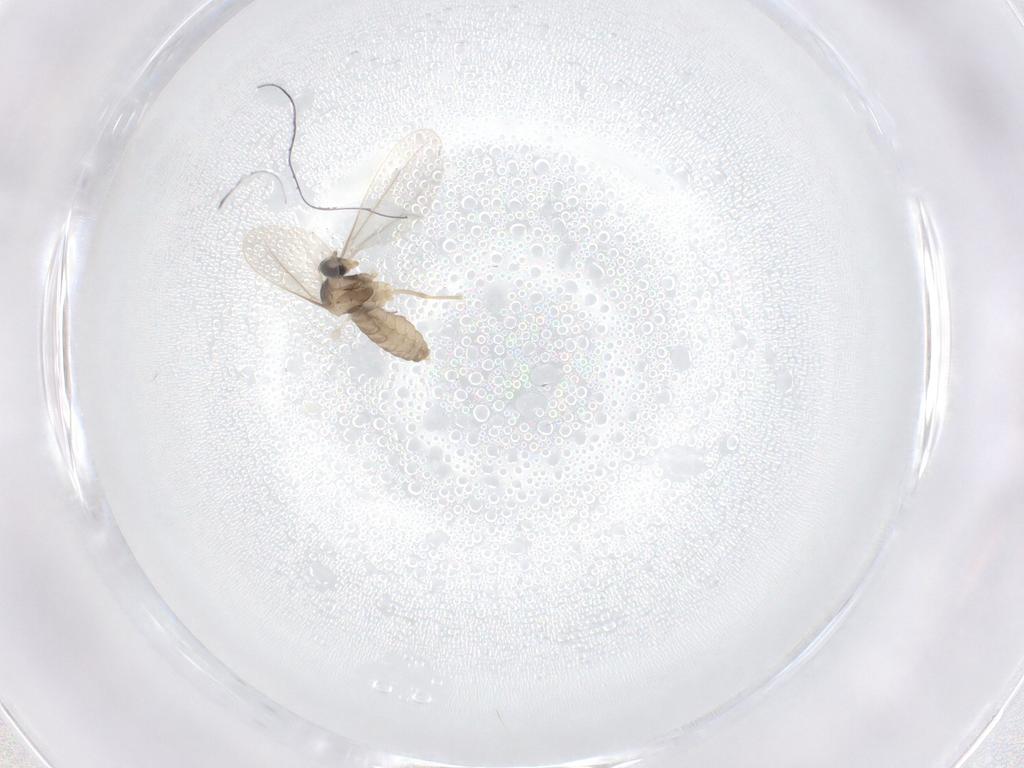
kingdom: Animalia
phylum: Arthropoda
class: Insecta
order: Diptera
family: Cecidomyiidae
